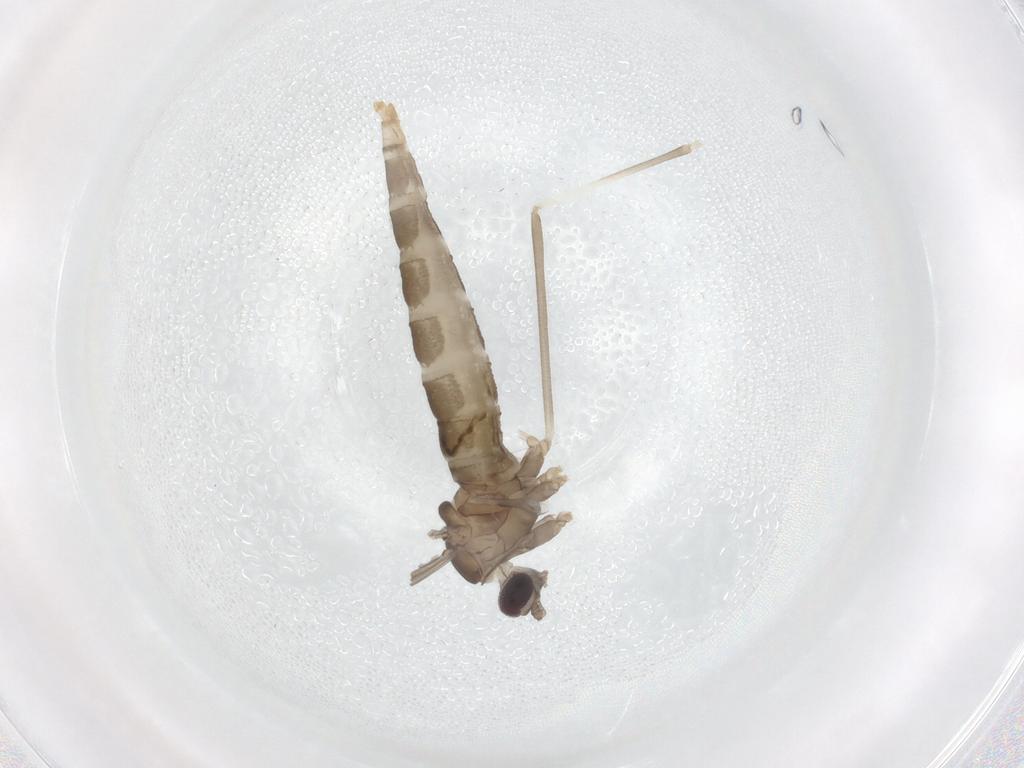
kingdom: Animalia
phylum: Arthropoda
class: Insecta
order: Diptera
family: Cecidomyiidae
